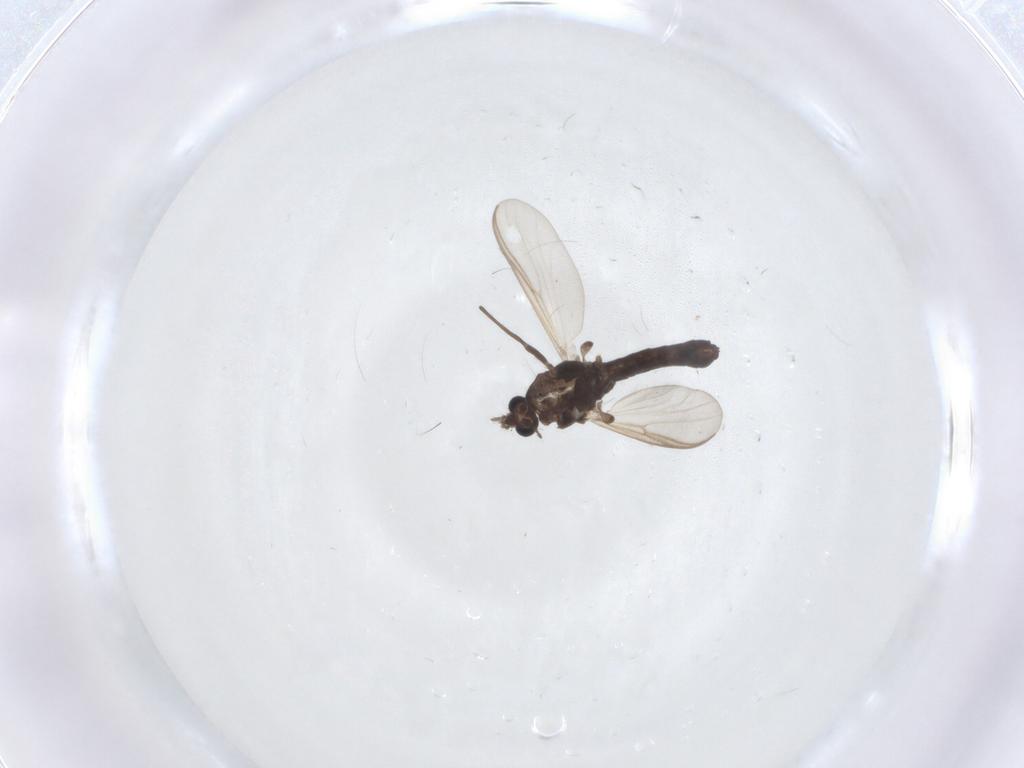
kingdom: Animalia
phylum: Arthropoda
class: Insecta
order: Diptera
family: Chironomidae
